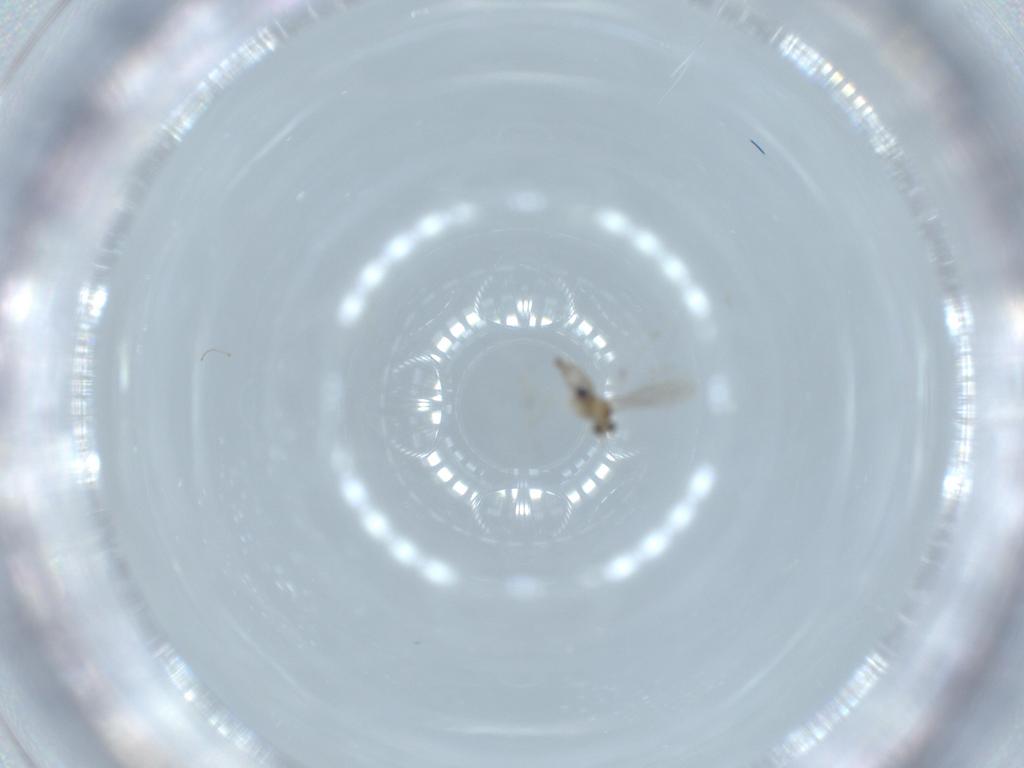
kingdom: Animalia
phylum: Arthropoda
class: Insecta
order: Diptera
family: Cecidomyiidae
